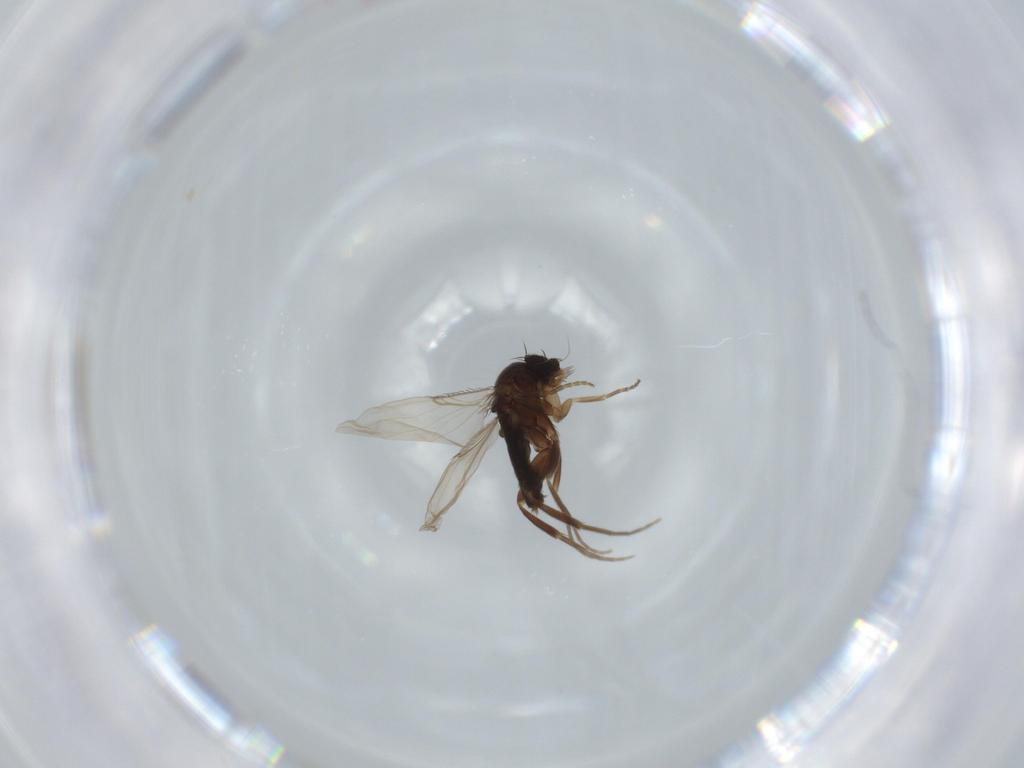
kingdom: Animalia
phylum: Arthropoda
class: Insecta
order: Diptera
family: Phoridae
